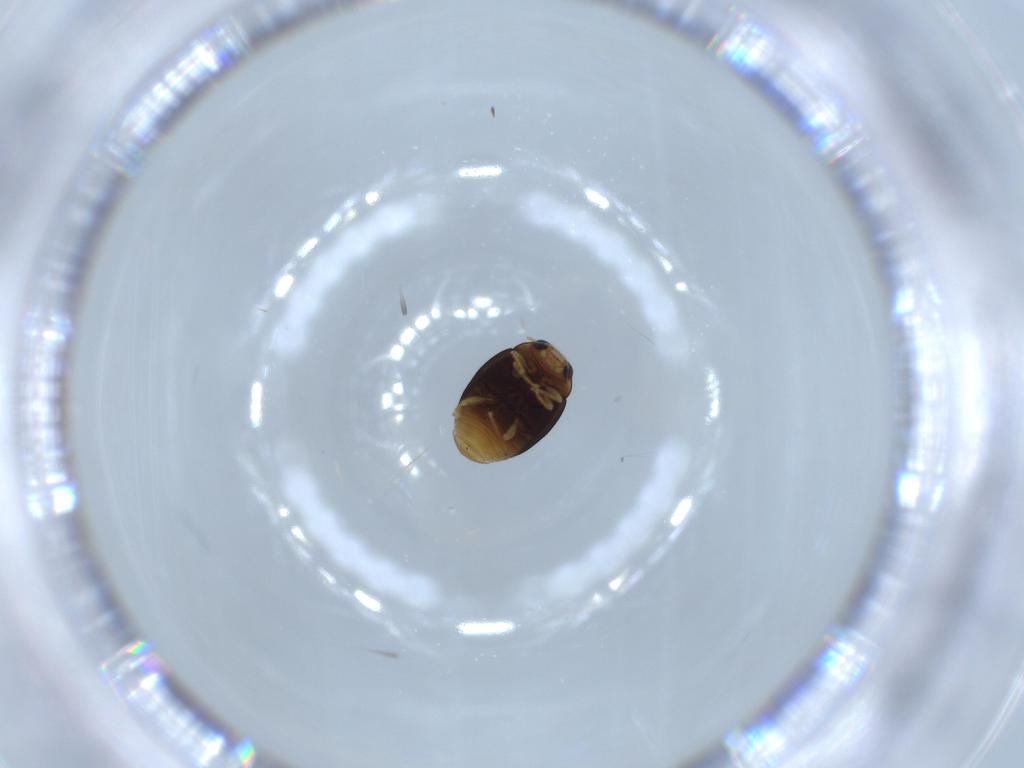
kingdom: Animalia
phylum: Arthropoda
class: Insecta
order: Coleoptera
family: Coccinellidae
